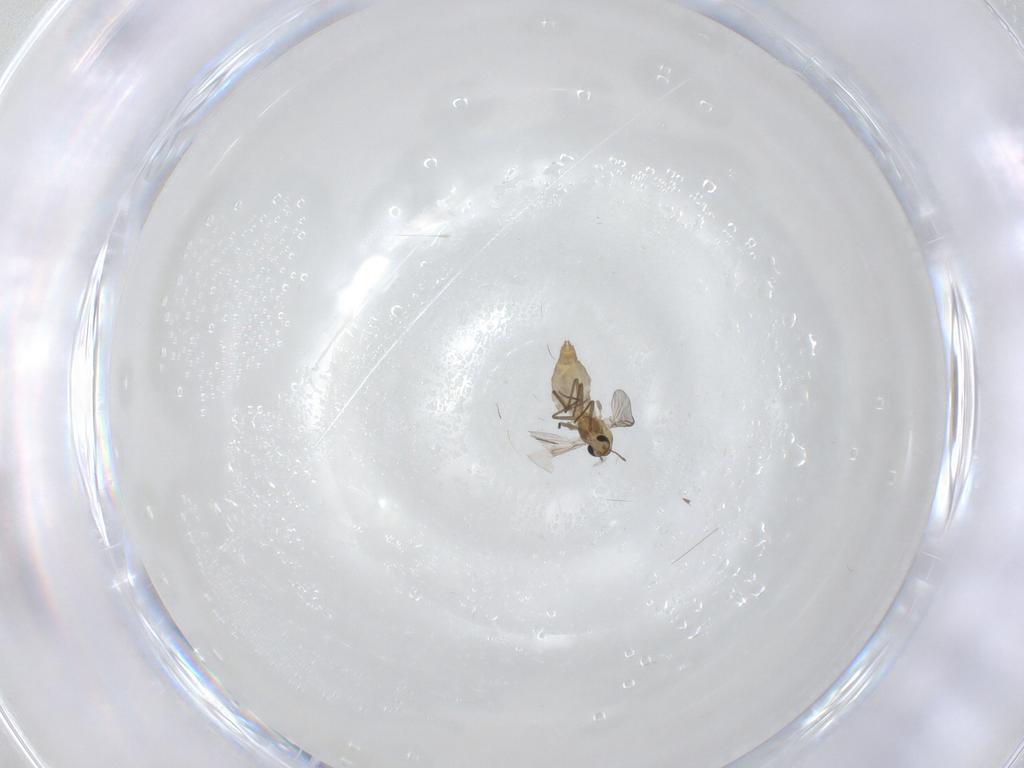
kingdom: Animalia
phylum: Arthropoda
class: Insecta
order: Diptera
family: Chironomidae
